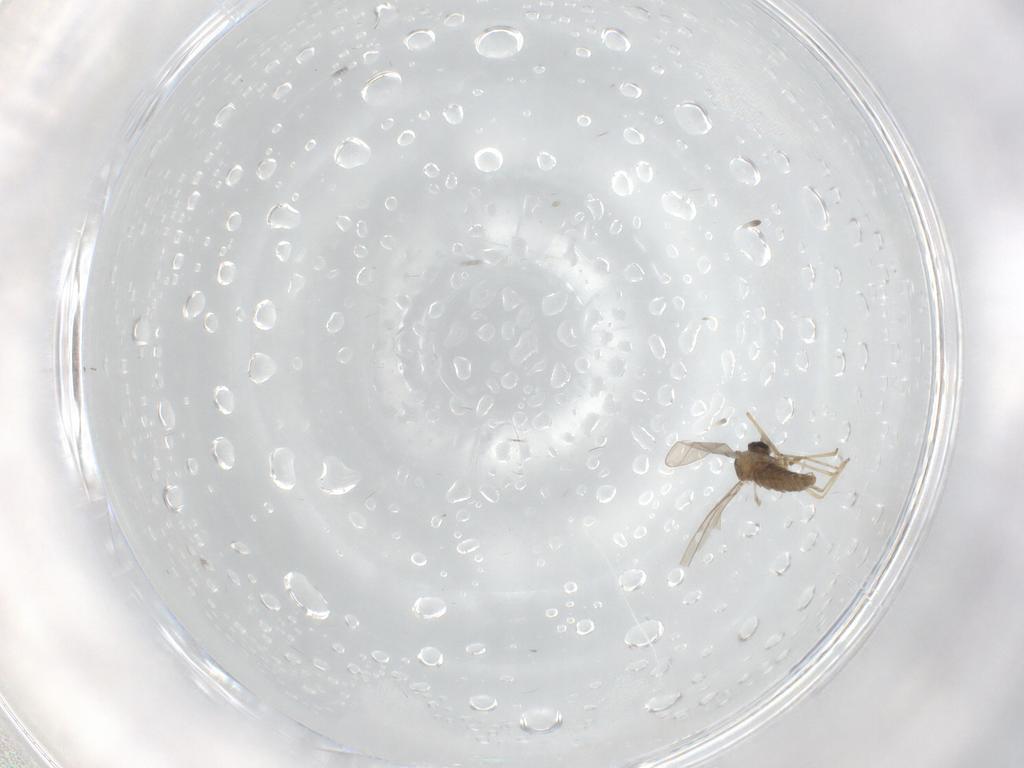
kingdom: Animalia
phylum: Arthropoda
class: Insecta
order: Diptera
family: Cecidomyiidae
